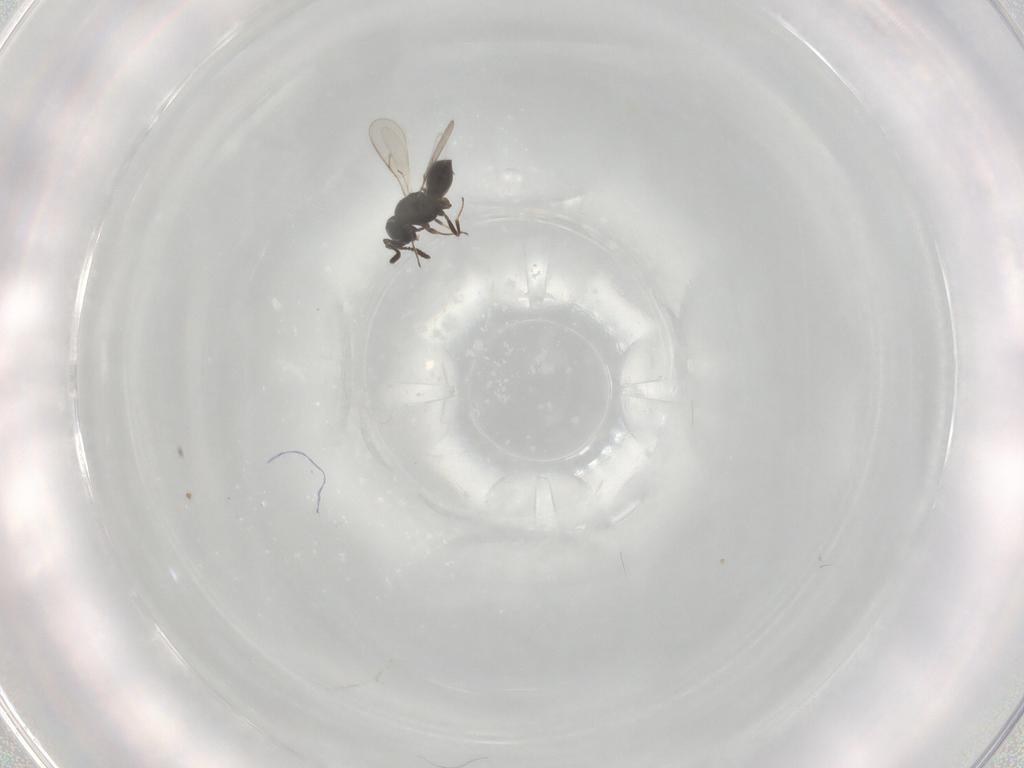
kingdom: Animalia
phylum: Arthropoda
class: Insecta
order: Hymenoptera
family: Scelionidae
